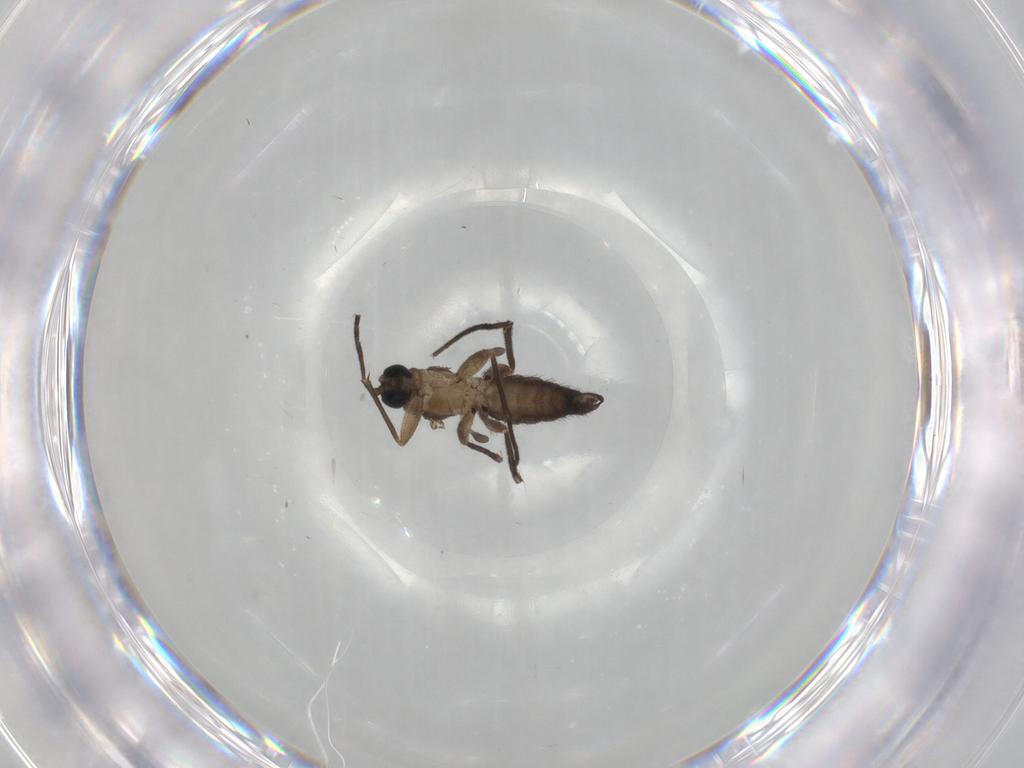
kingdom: Animalia
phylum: Arthropoda
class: Insecta
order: Diptera
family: Sciaridae
